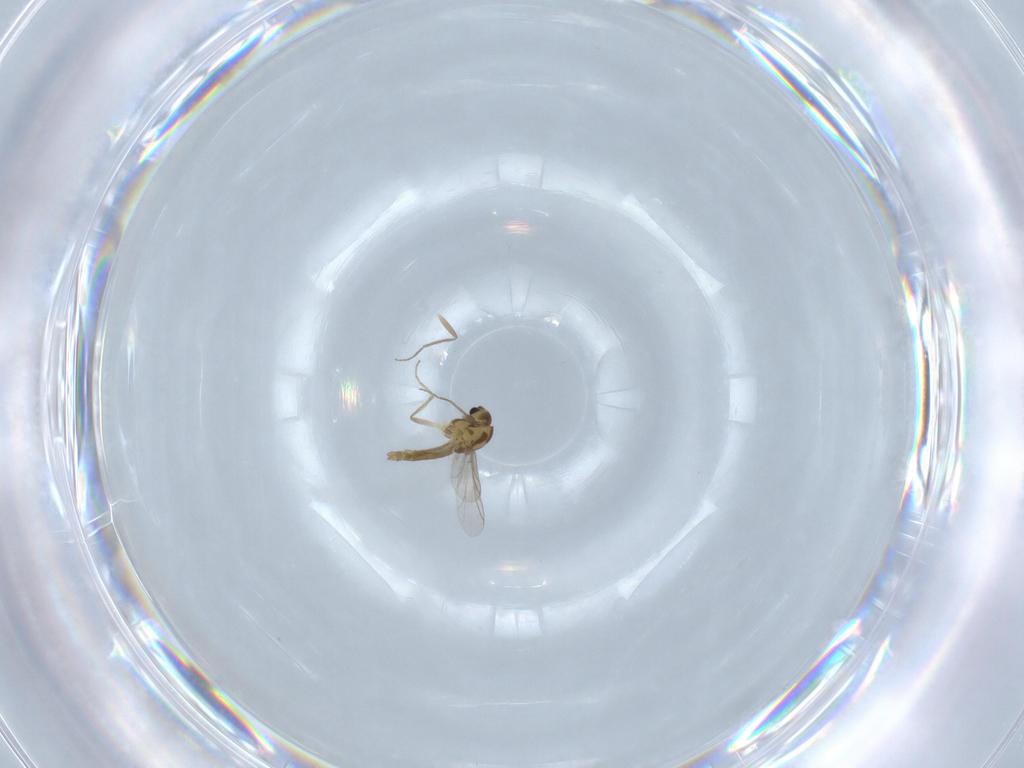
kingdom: Animalia
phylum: Arthropoda
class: Insecta
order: Diptera
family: Chironomidae
